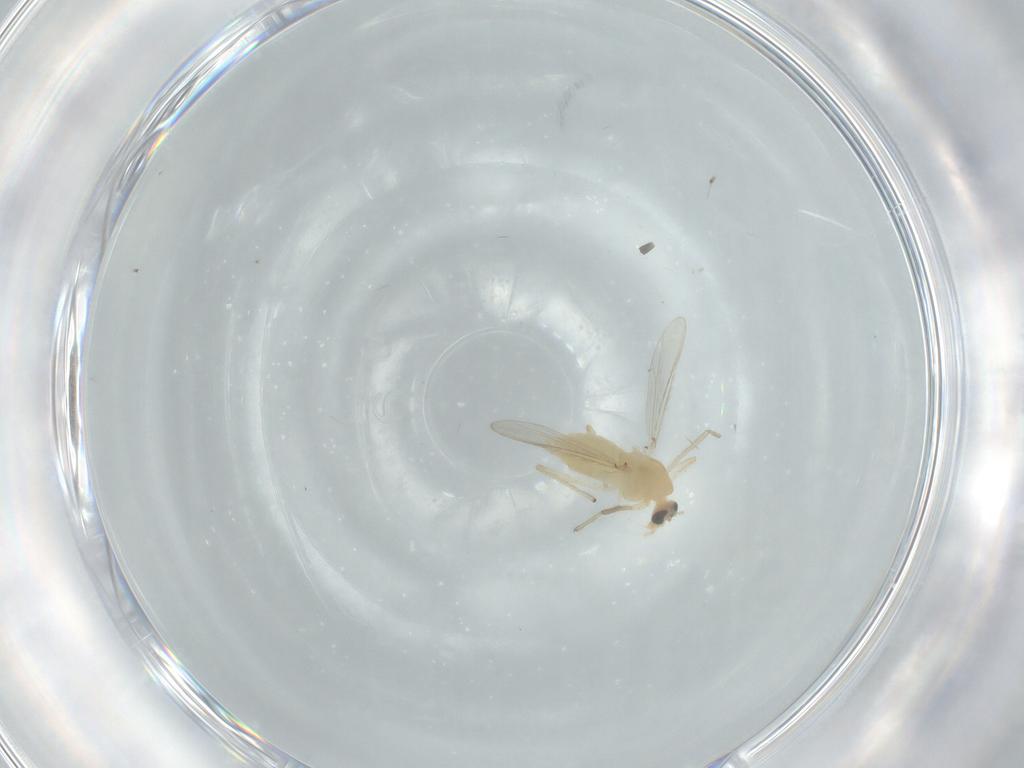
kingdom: Animalia
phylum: Arthropoda
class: Insecta
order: Diptera
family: Chironomidae
